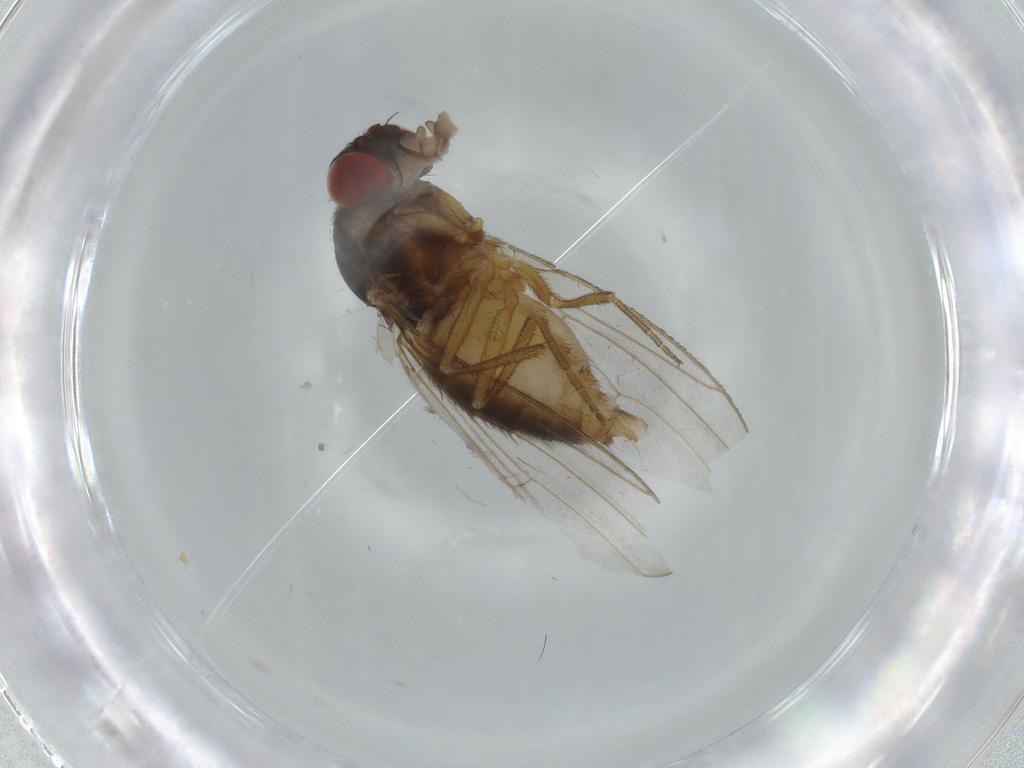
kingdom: Animalia
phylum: Arthropoda
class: Insecta
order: Diptera
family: Drosophilidae
